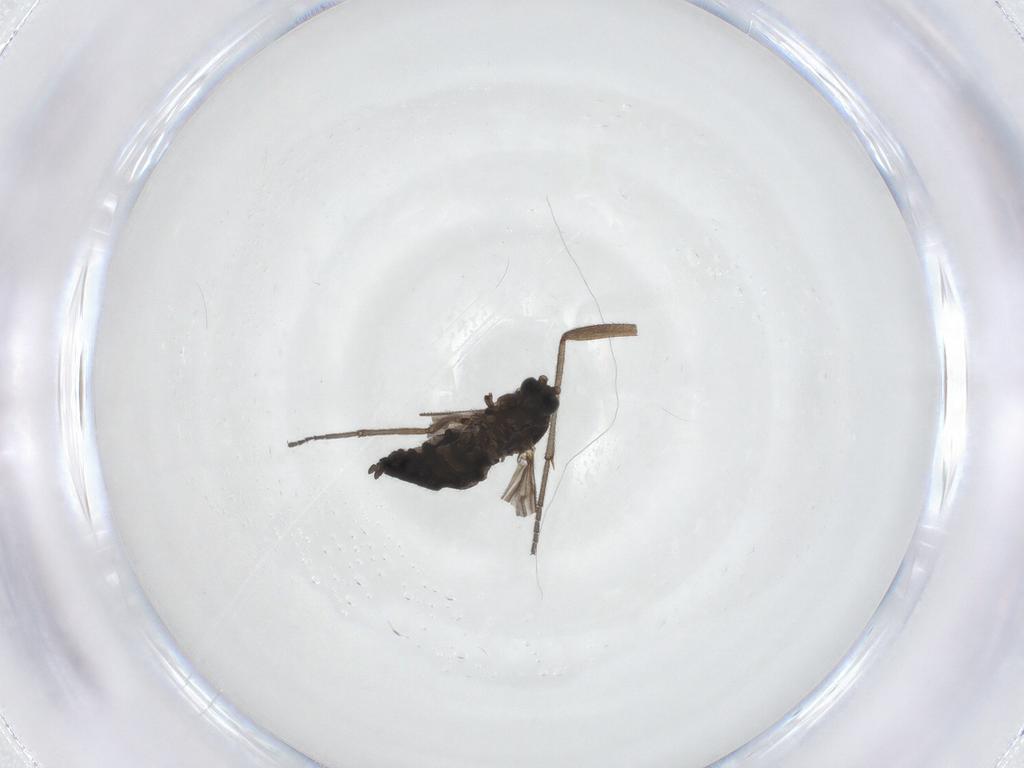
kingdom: Animalia
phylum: Arthropoda
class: Insecta
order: Diptera
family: Sciaridae
